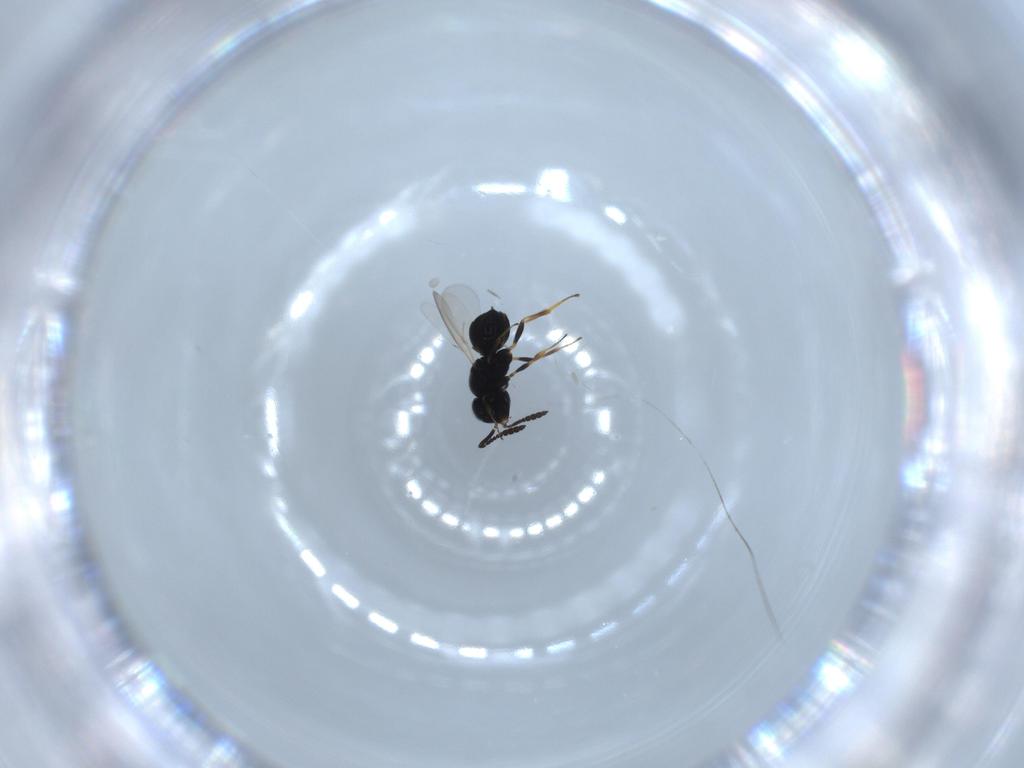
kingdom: Animalia
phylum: Arthropoda
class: Insecta
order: Hymenoptera
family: Scelionidae
